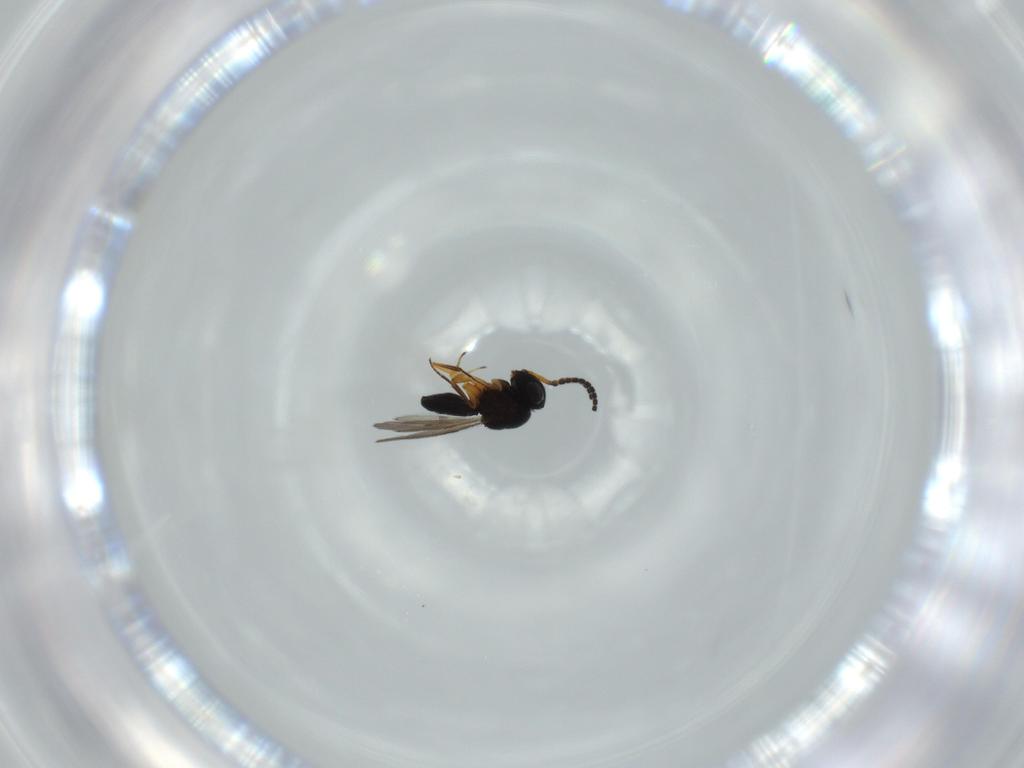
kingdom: Animalia
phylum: Arthropoda
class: Insecta
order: Hymenoptera
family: Scelionidae
